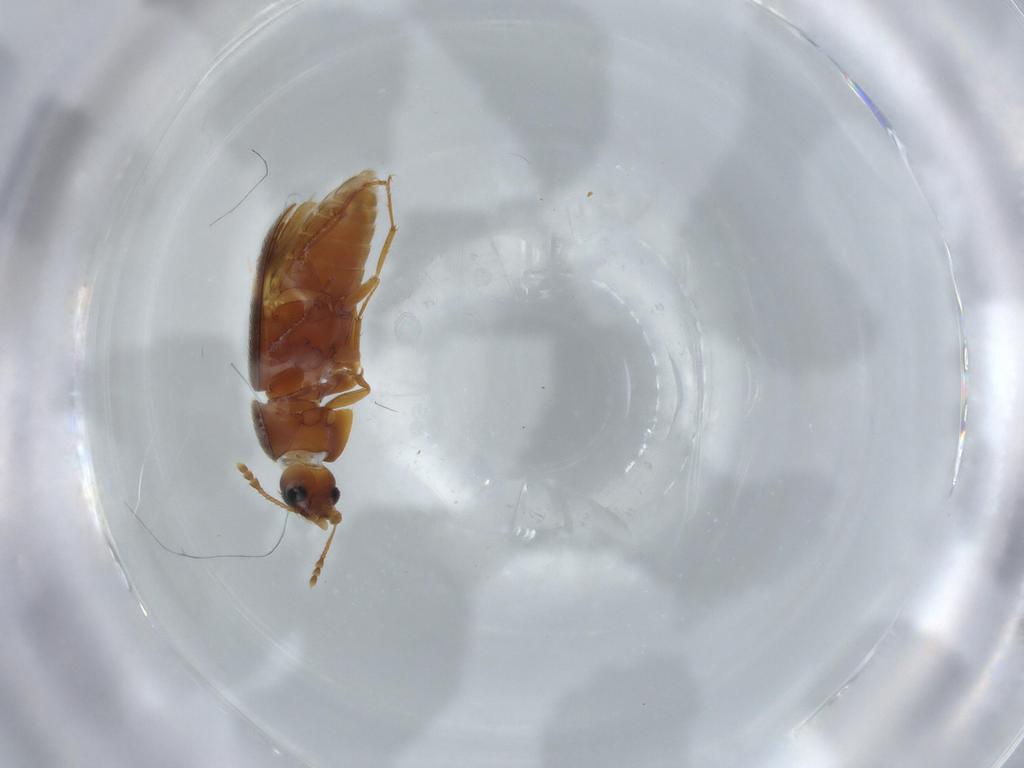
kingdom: Animalia
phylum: Arthropoda
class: Insecta
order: Coleoptera
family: Mycetophagidae
